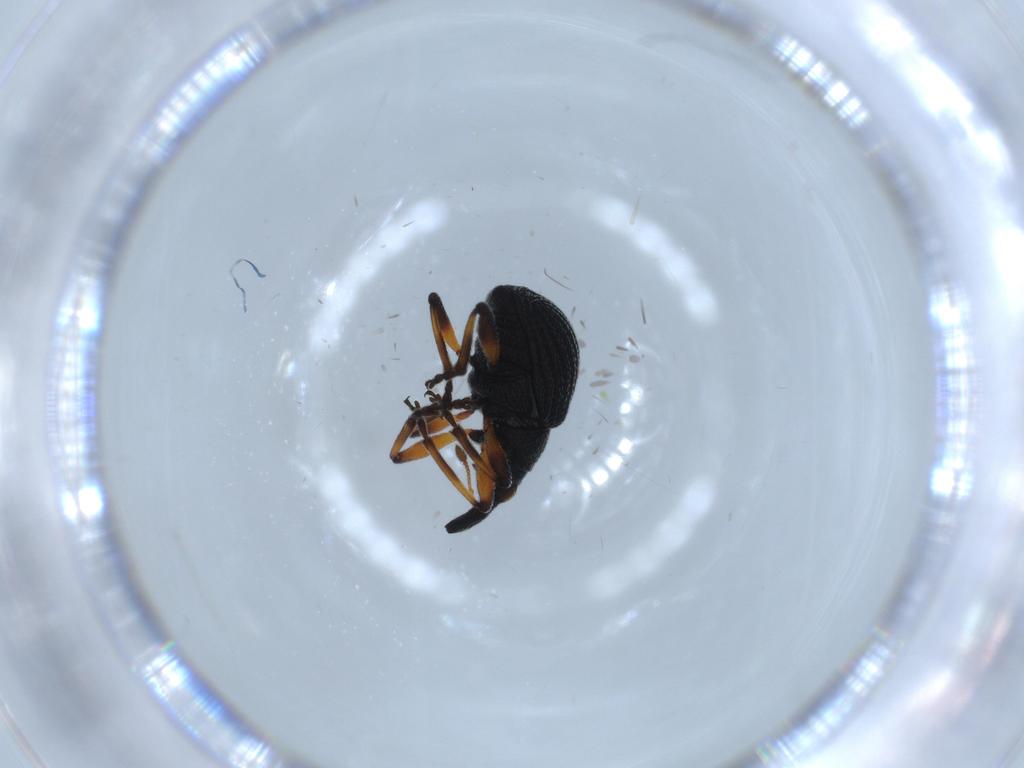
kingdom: Animalia
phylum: Arthropoda
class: Insecta
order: Coleoptera
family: Brentidae
